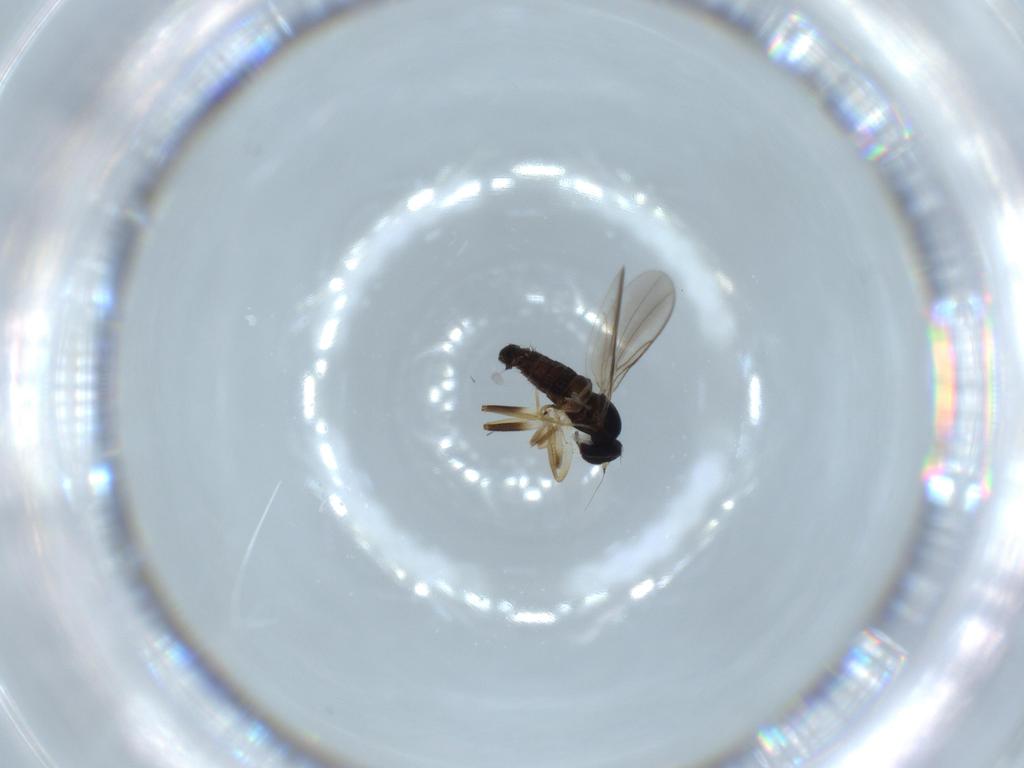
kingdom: Animalia
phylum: Arthropoda
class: Insecta
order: Diptera
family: Hybotidae
